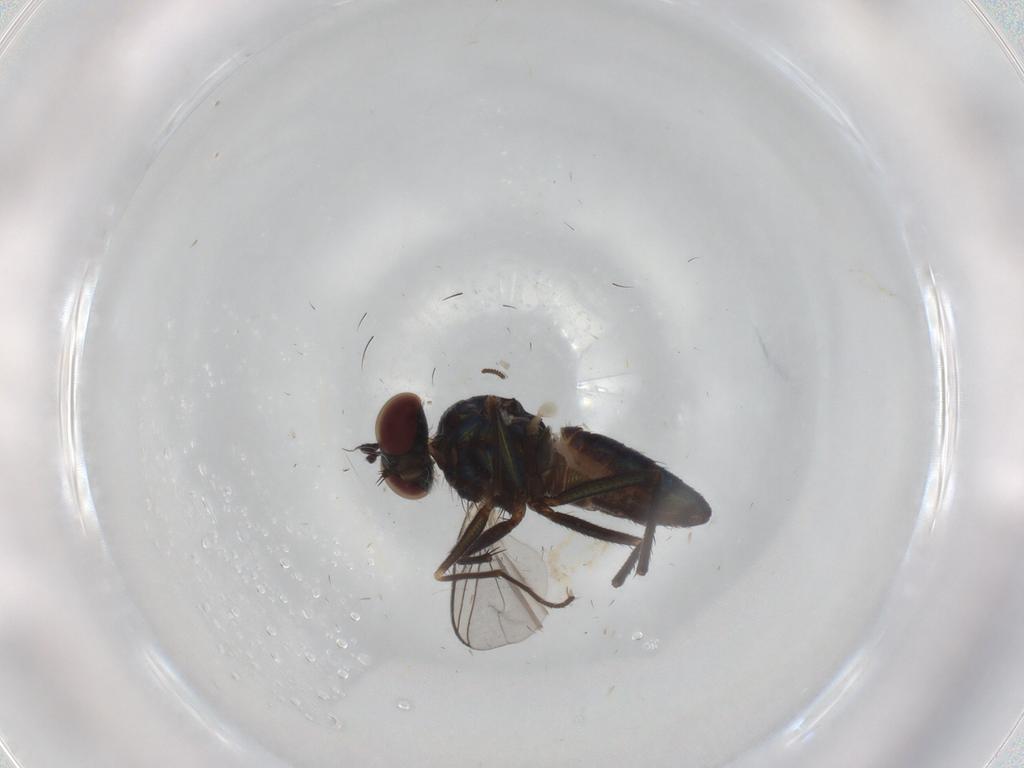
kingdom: Animalia
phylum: Arthropoda
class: Insecta
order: Diptera
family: Dolichopodidae
